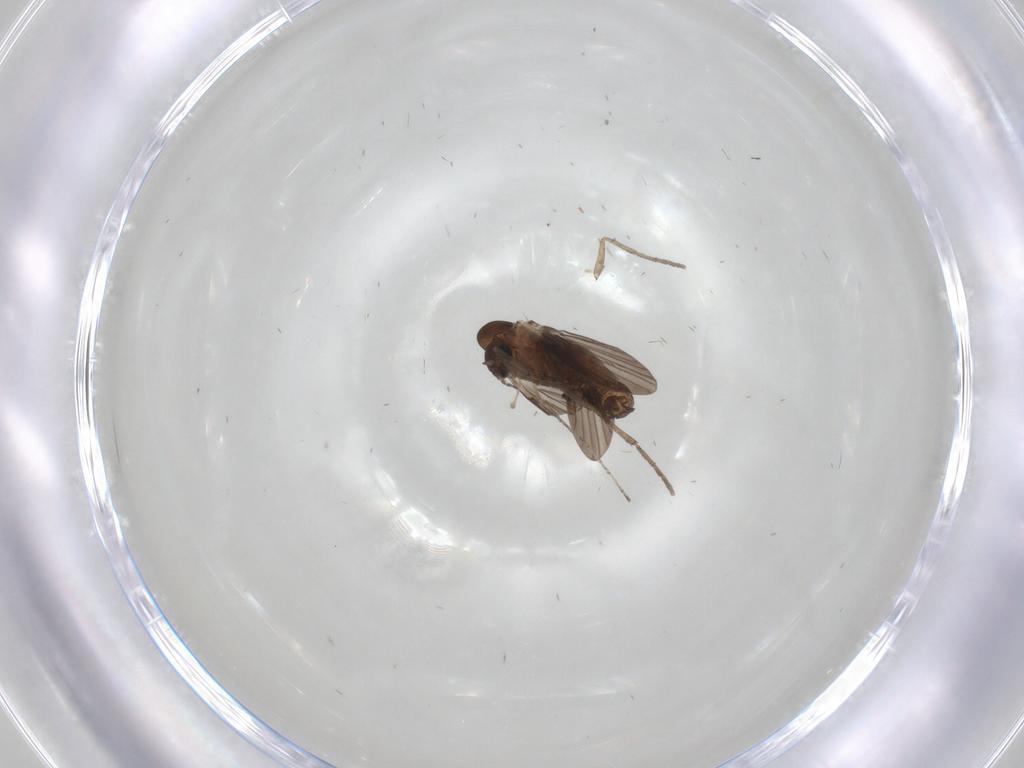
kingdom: Animalia
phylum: Arthropoda
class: Insecta
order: Diptera
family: Psychodidae
